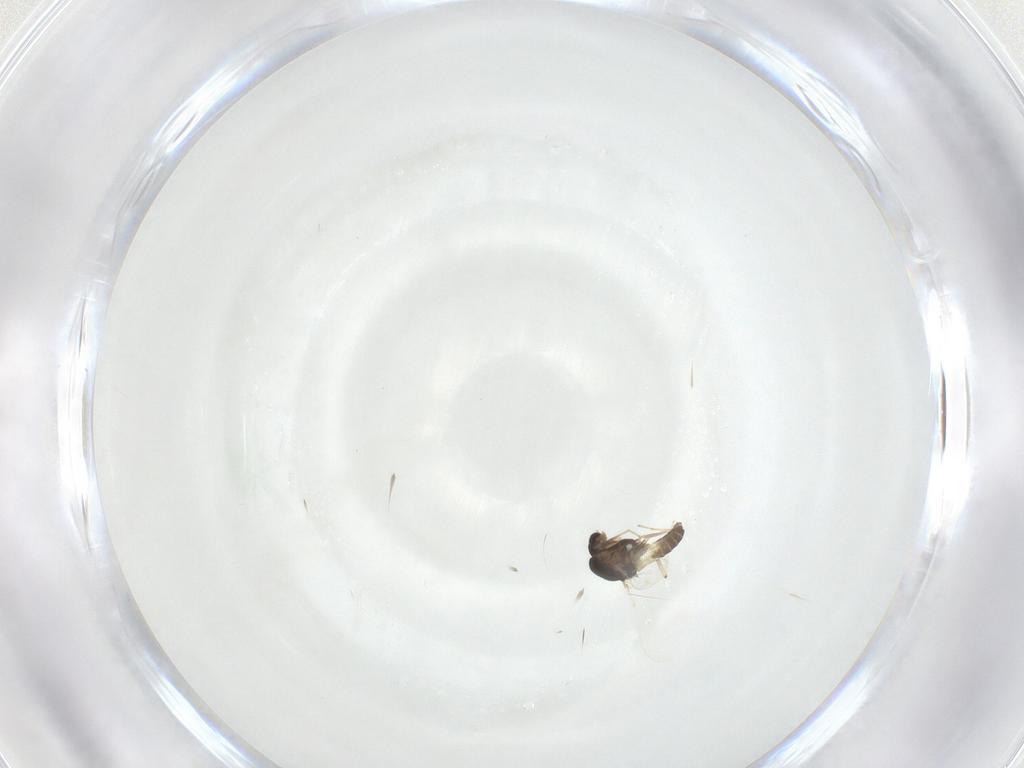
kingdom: Animalia
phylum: Arthropoda
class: Insecta
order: Diptera
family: Chironomidae
